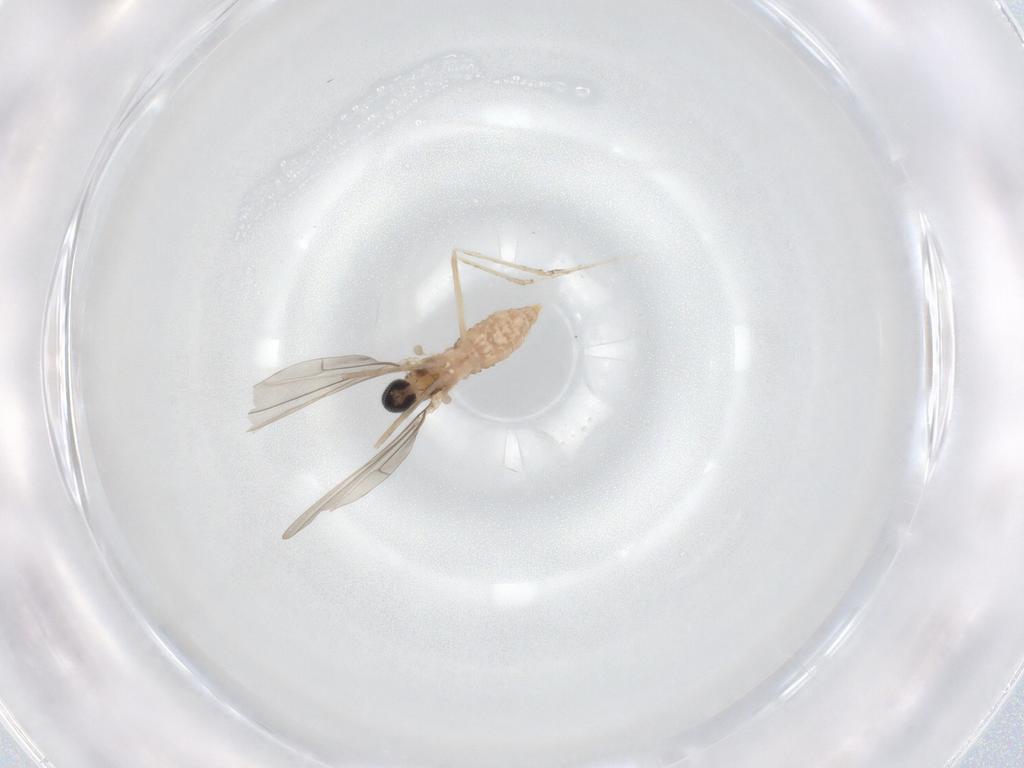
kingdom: Animalia
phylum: Arthropoda
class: Insecta
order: Diptera
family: Cecidomyiidae
